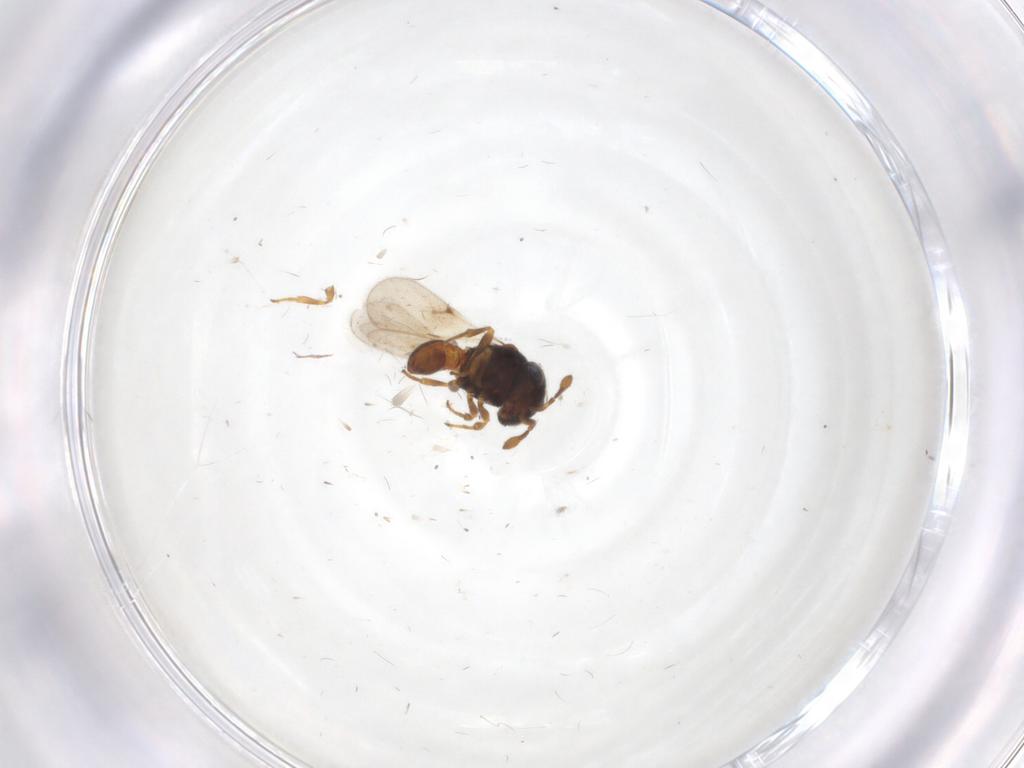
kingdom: Animalia
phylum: Arthropoda
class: Insecta
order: Hymenoptera
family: Scelionidae
